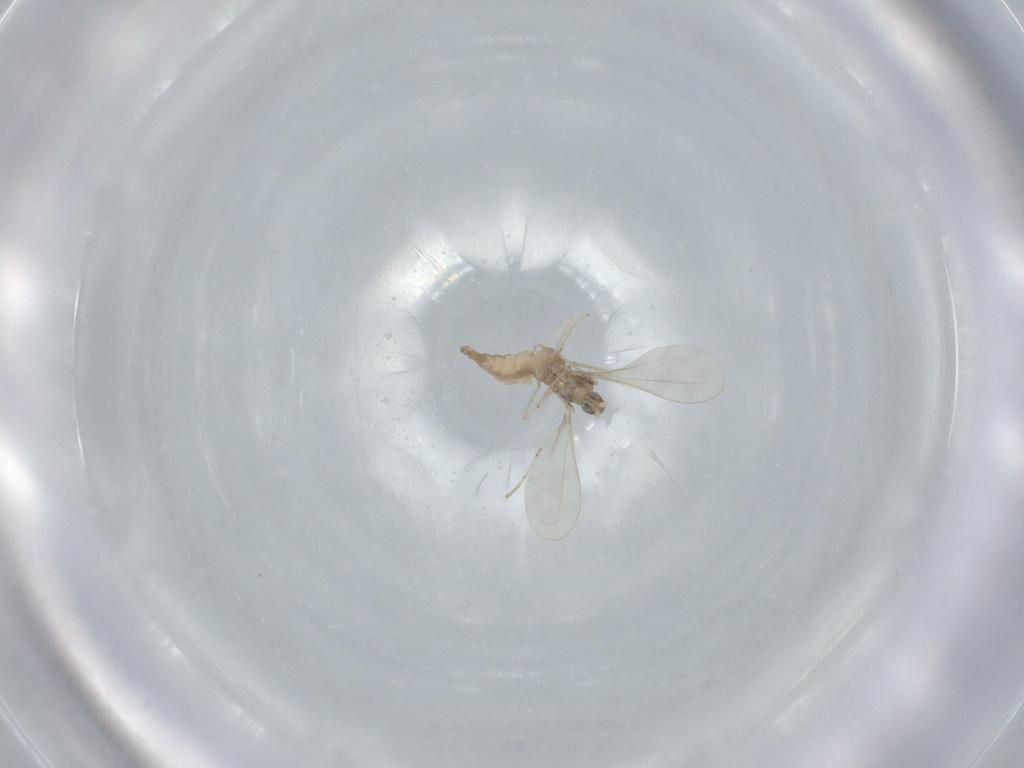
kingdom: Animalia
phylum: Arthropoda
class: Insecta
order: Diptera
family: Cecidomyiidae
